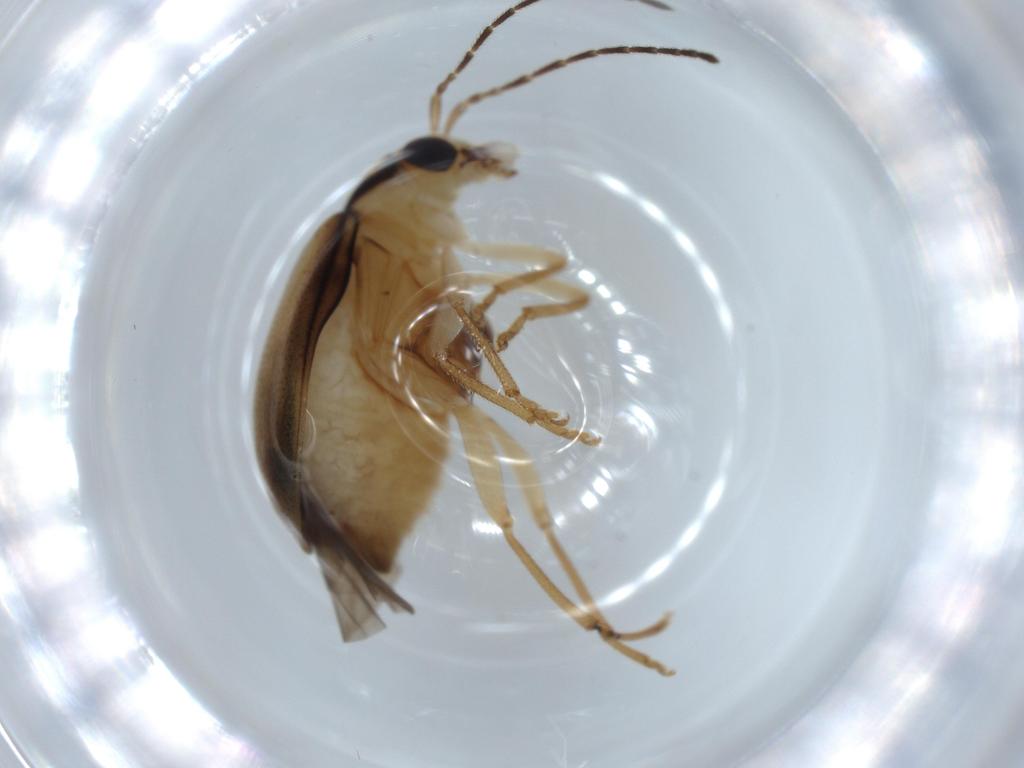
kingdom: Animalia
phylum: Arthropoda
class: Insecta
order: Coleoptera
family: Chrysomelidae
